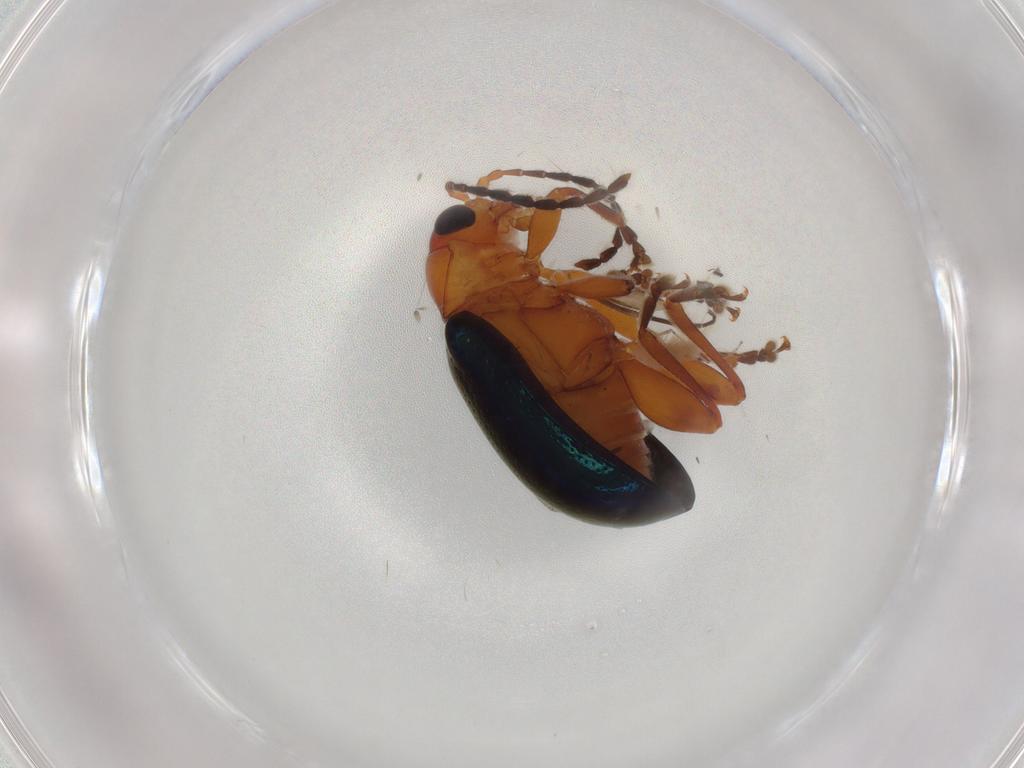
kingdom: Animalia
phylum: Arthropoda
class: Insecta
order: Coleoptera
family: Chrysomelidae
